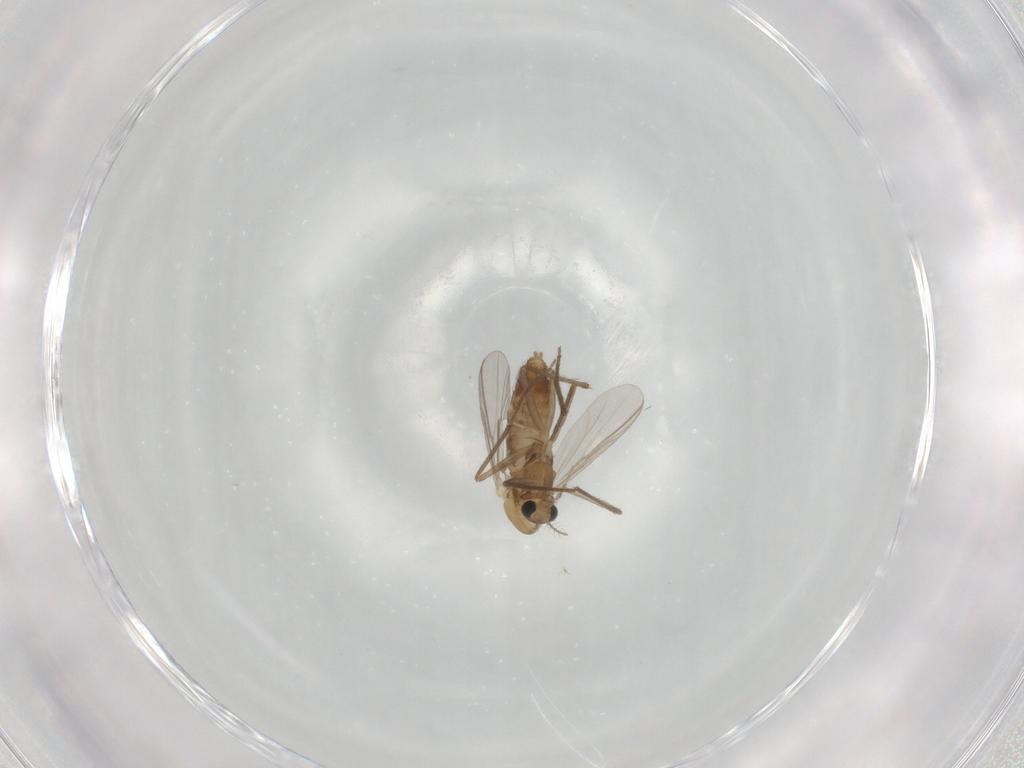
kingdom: Animalia
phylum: Arthropoda
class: Insecta
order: Diptera
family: Chironomidae
